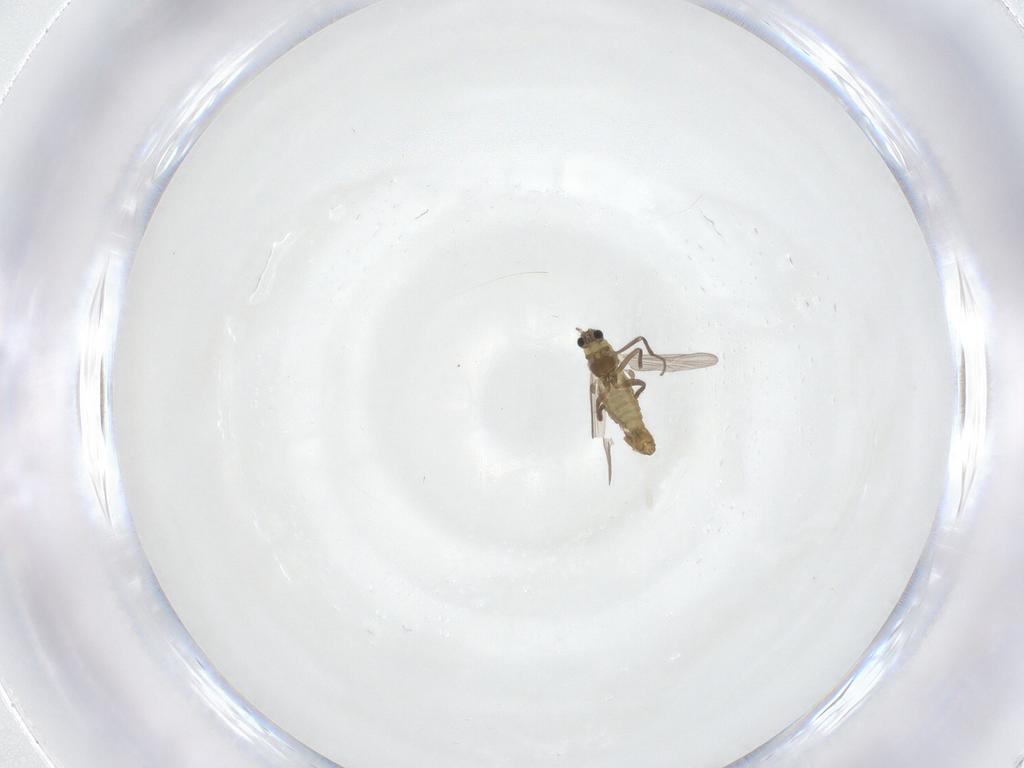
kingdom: Animalia
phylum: Arthropoda
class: Insecta
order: Diptera
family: Chironomidae
